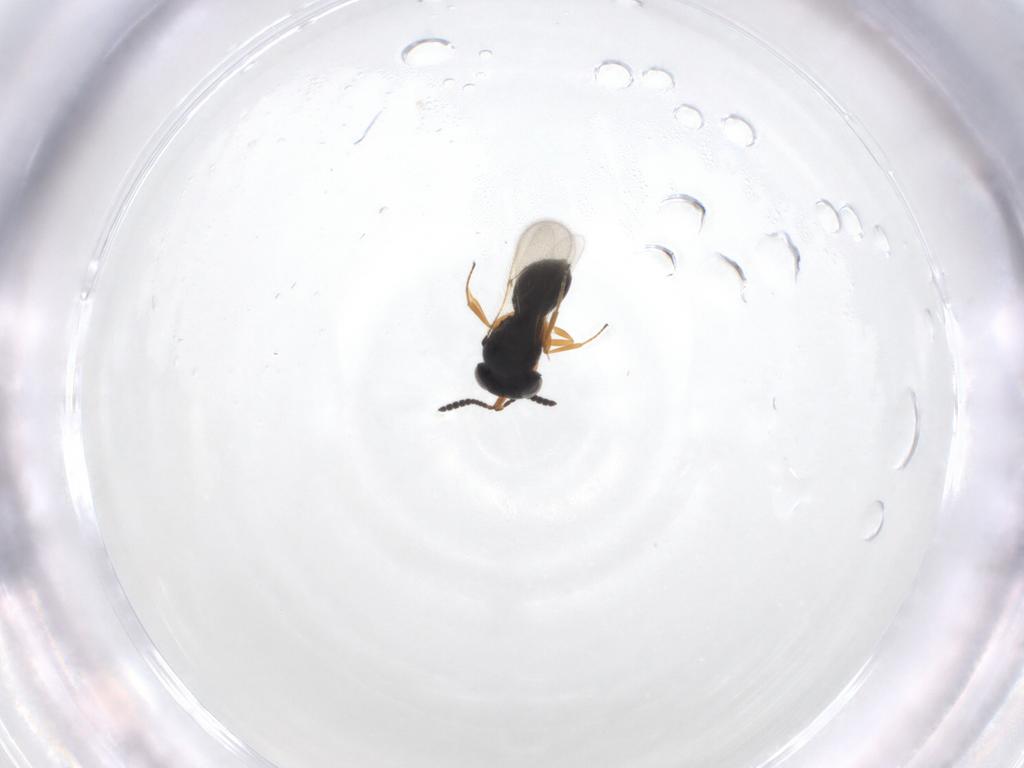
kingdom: Animalia
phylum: Arthropoda
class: Insecta
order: Hymenoptera
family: Scelionidae
